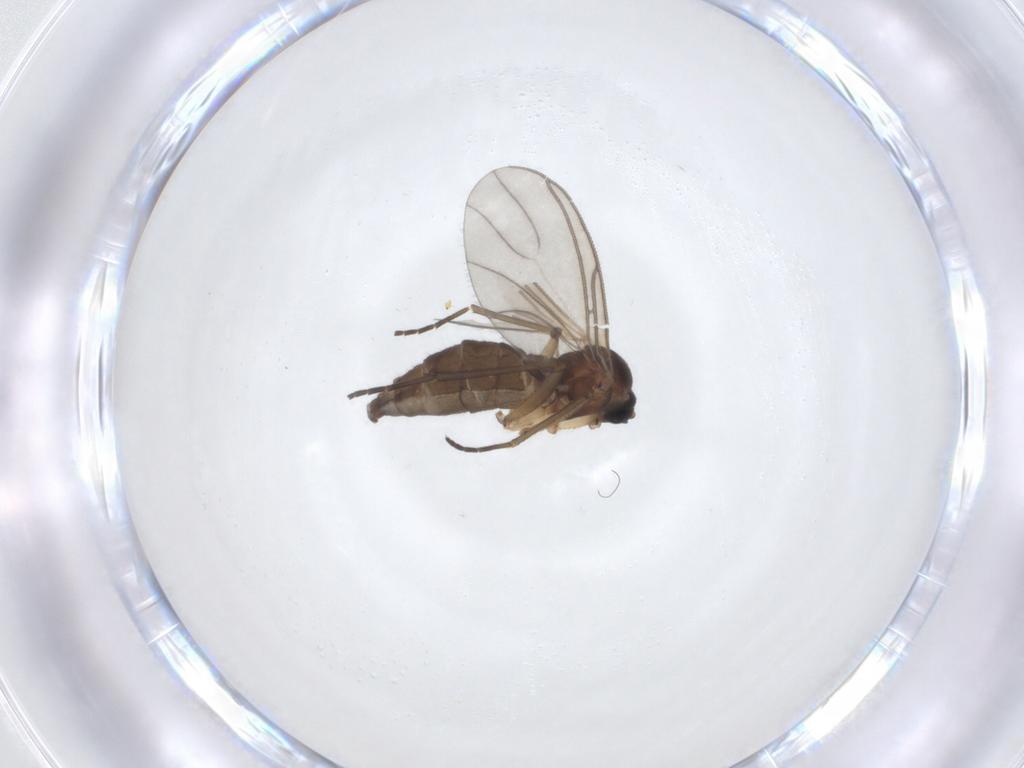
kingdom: Animalia
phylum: Arthropoda
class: Insecta
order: Diptera
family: Sciaridae
